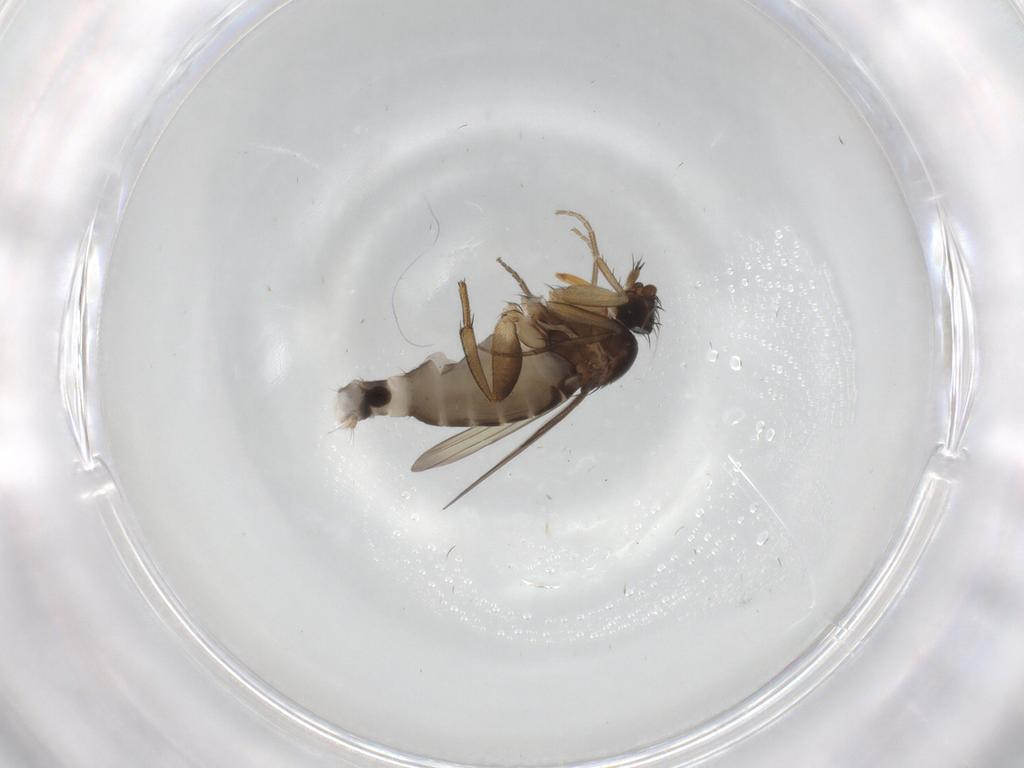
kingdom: Animalia
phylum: Arthropoda
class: Insecta
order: Diptera
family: Phoridae
